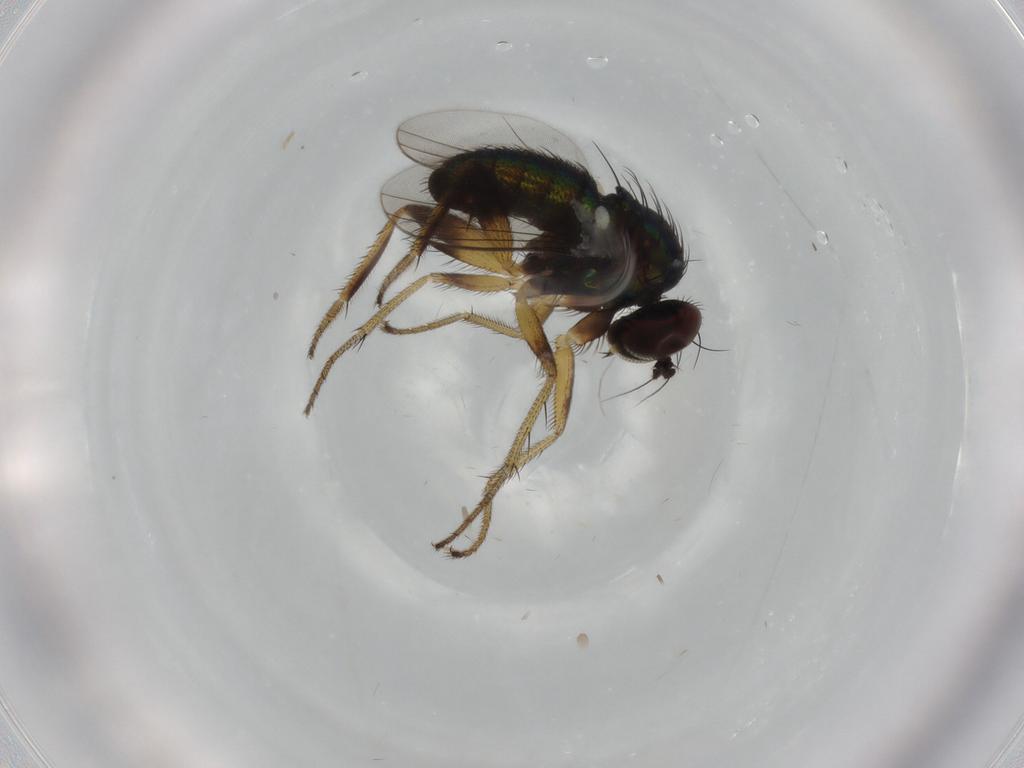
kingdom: Animalia
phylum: Arthropoda
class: Insecta
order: Diptera
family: Dolichopodidae
